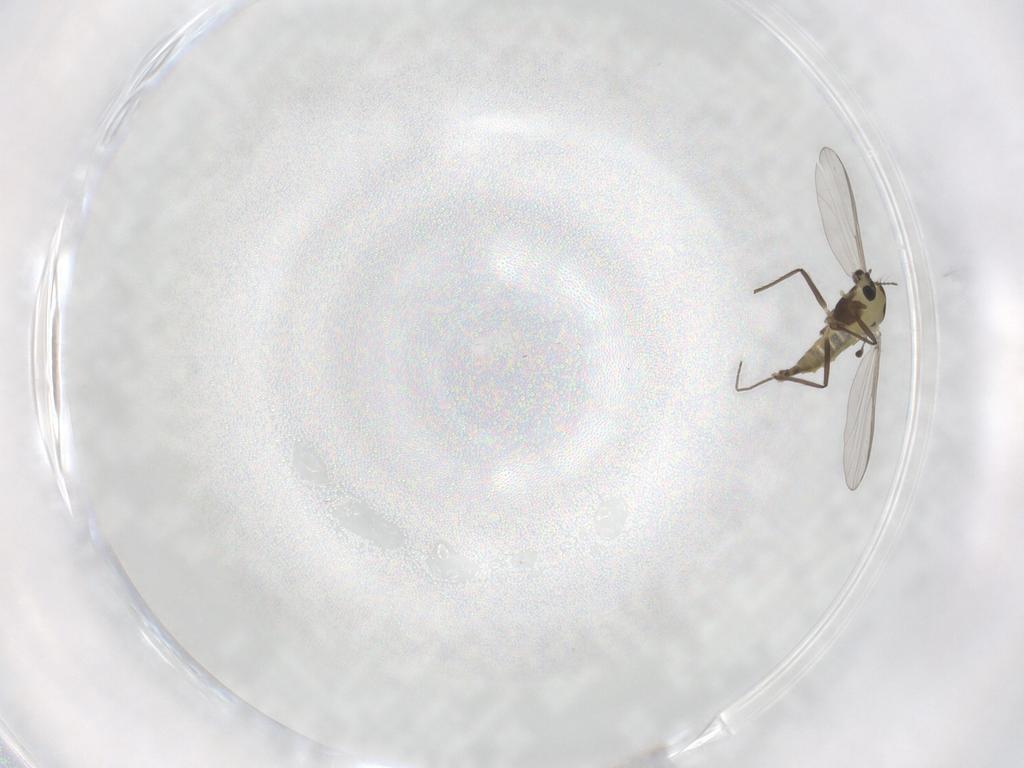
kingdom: Animalia
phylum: Arthropoda
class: Insecta
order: Diptera
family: Chironomidae
